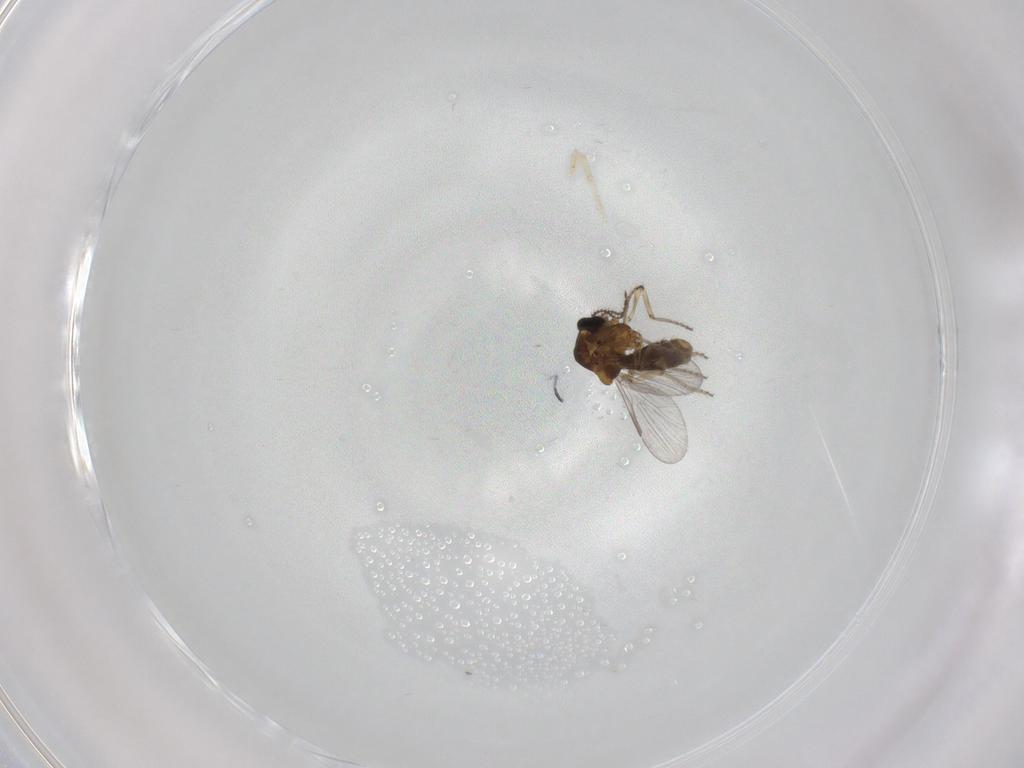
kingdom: Animalia
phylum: Arthropoda
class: Insecta
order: Diptera
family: Ceratopogonidae
